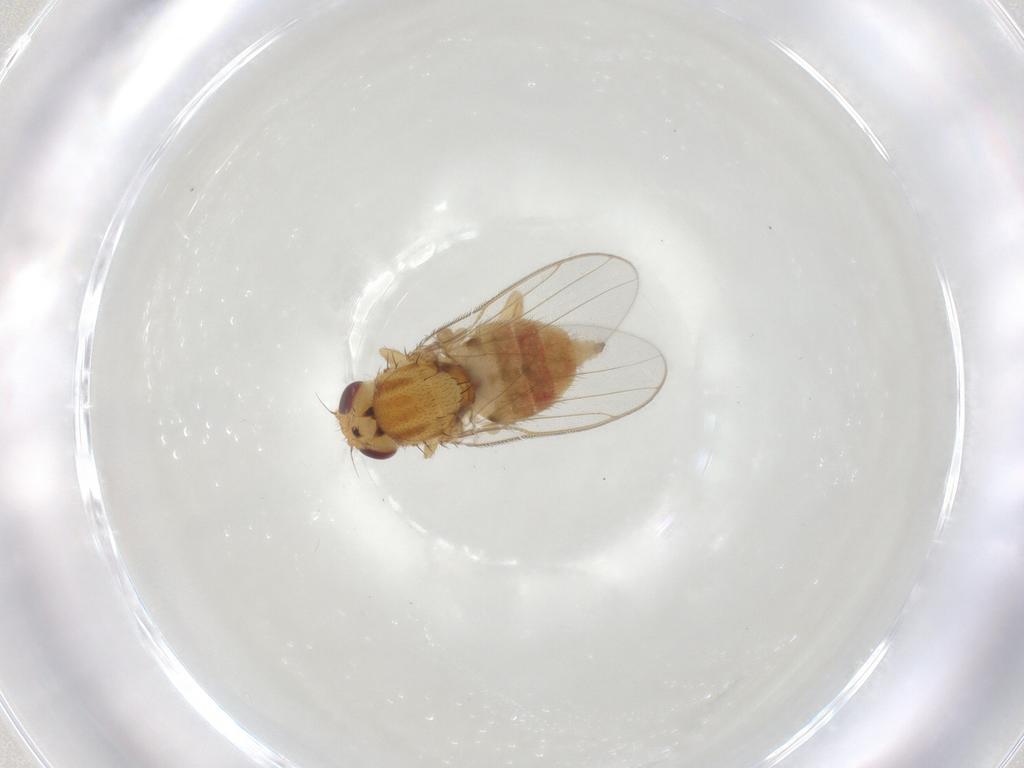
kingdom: Animalia
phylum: Arthropoda
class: Insecta
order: Diptera
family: Chloropidae
